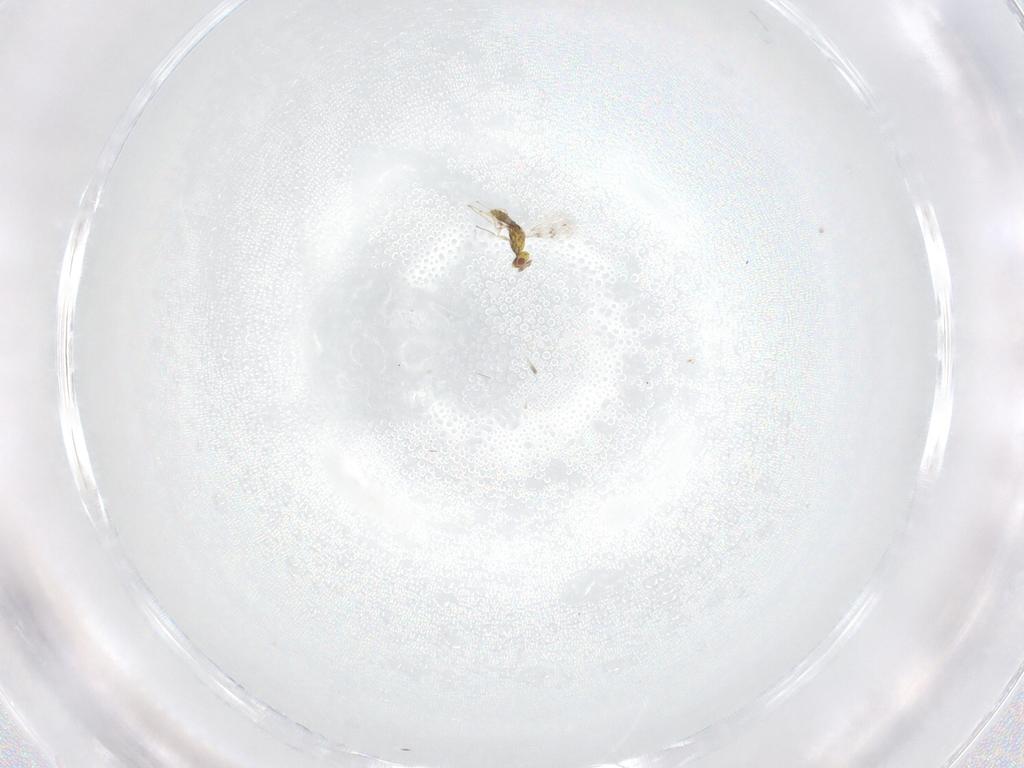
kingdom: Animalia
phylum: Arthropoda
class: Insecta
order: Hymenoptera
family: Eulophidae
